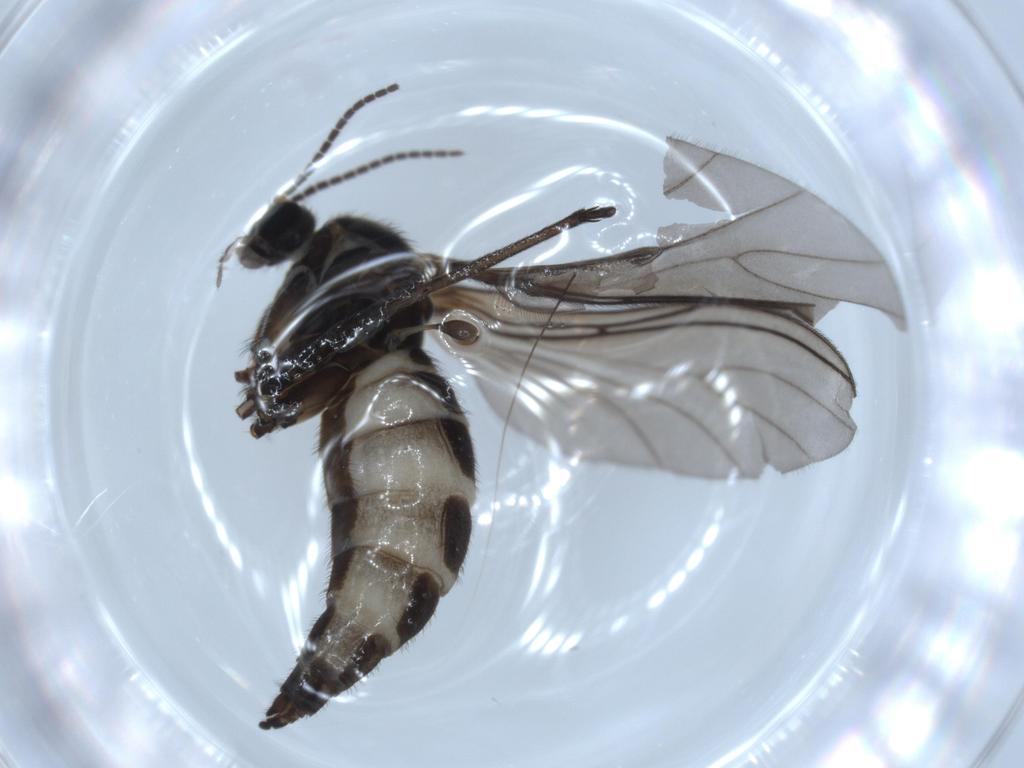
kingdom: Animalia
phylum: Arthropoda
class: Insecta
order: Diptera
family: Sciaridae
